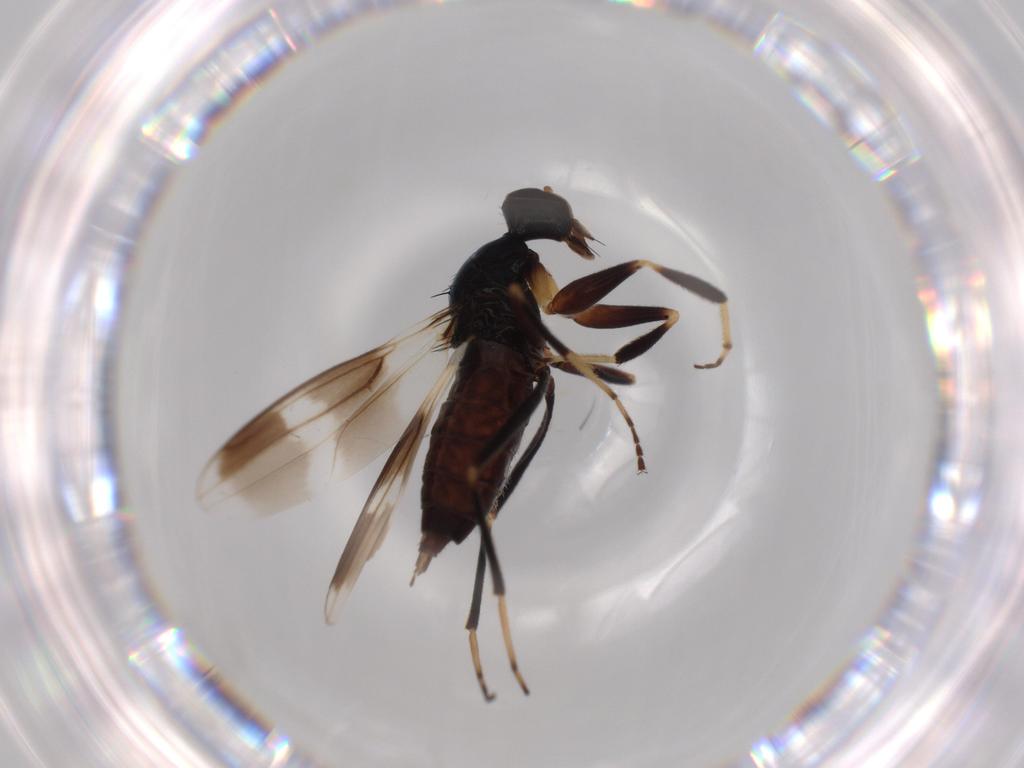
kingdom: Animalia
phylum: Arthropoda
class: Insecta
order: Diptera
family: Hybotidae
